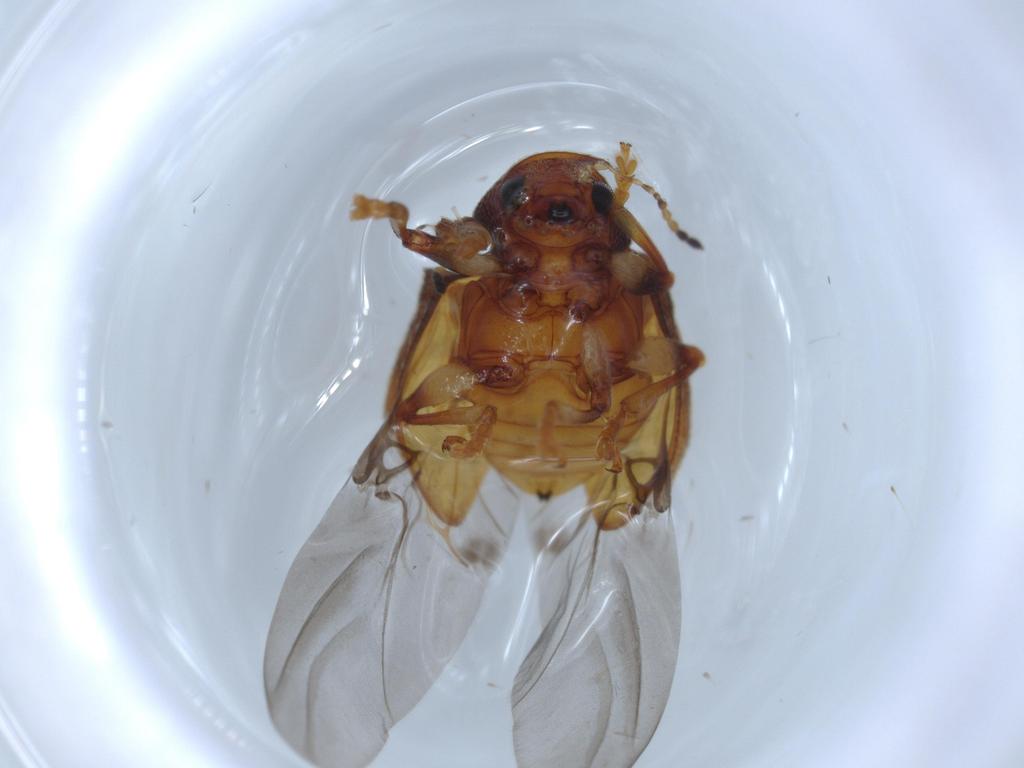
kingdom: Animalia
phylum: Arthropoda
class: Insecta
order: Coleoptera
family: Chrysomelidae
